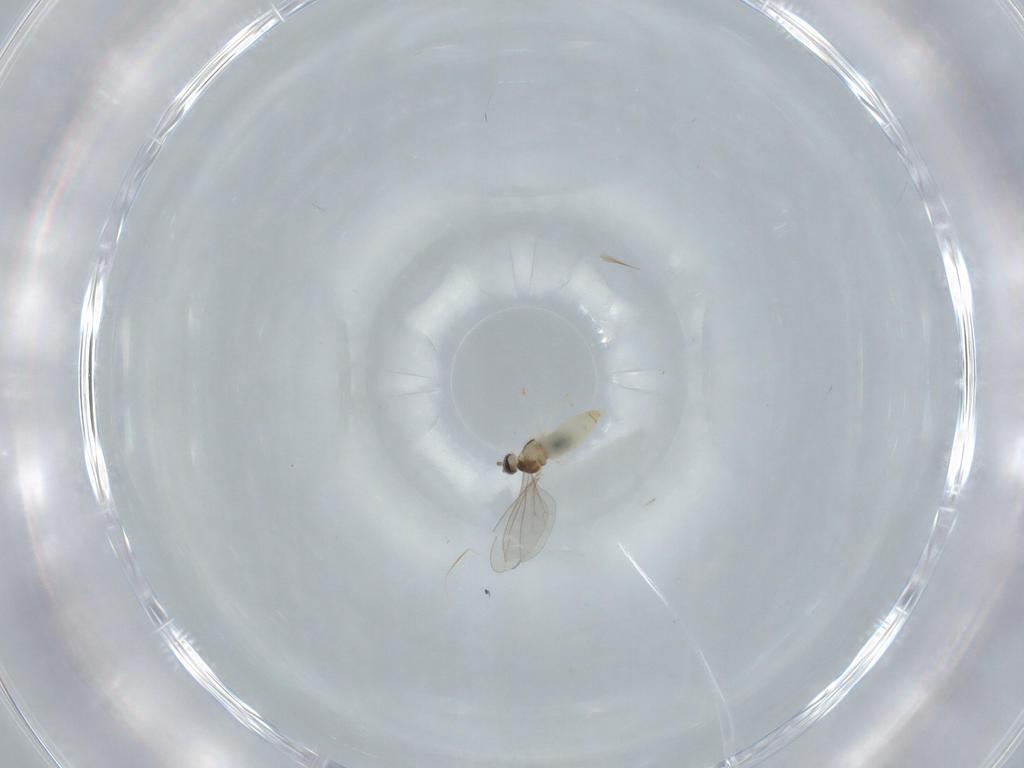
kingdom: Animalia
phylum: Arthropoda
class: Insecta
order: Diptera
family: Cecidomyiidae
